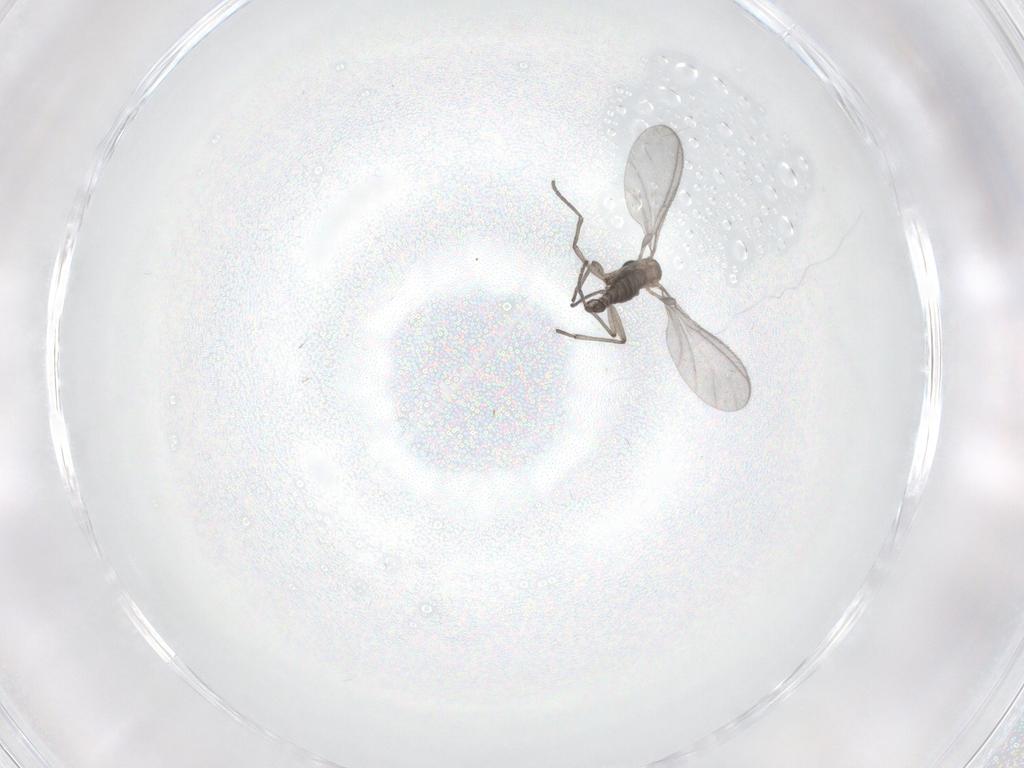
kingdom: Animalia
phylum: Arthropoda
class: Insecta
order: Diptera
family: Sciaridae
